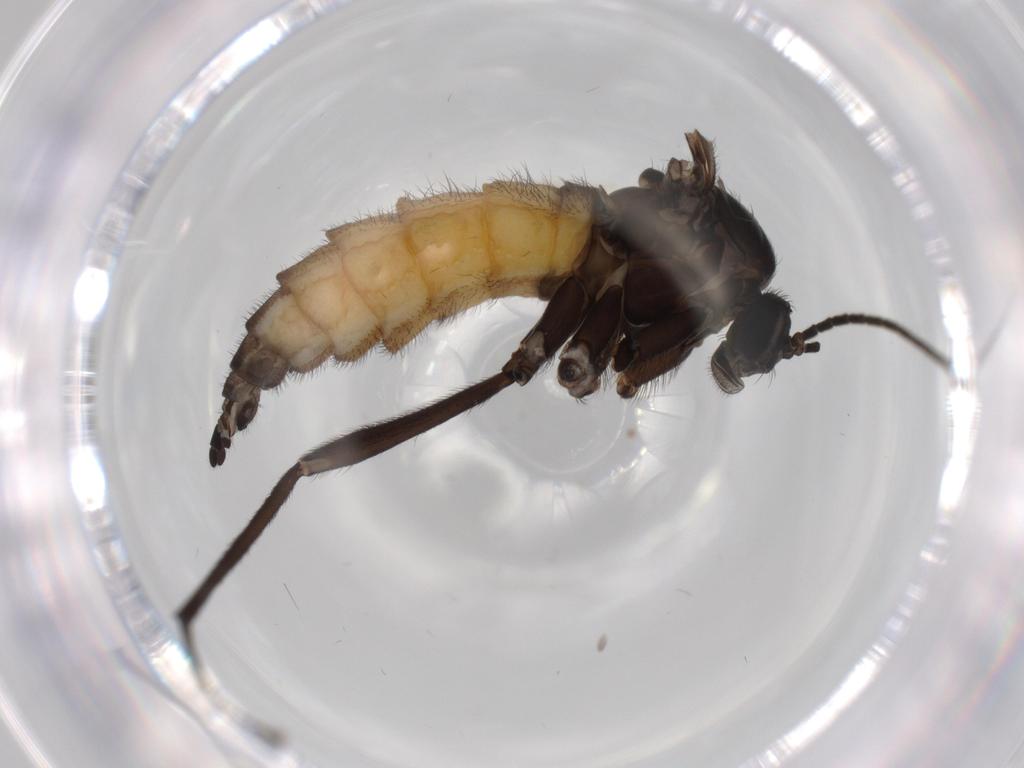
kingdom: Animalia
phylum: Arthropoda
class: Insecta
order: Diptera
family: Cecidomyiidae
